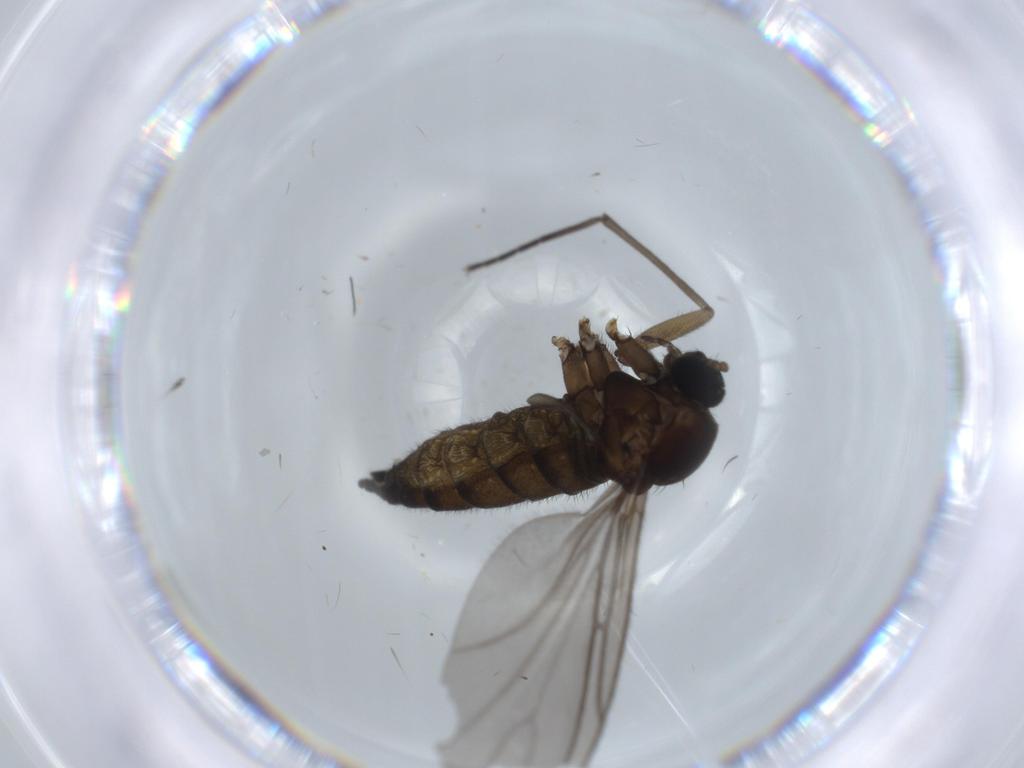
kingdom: Animalia
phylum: Arthropoda
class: Insecta
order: Diptera
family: Sciaridae
